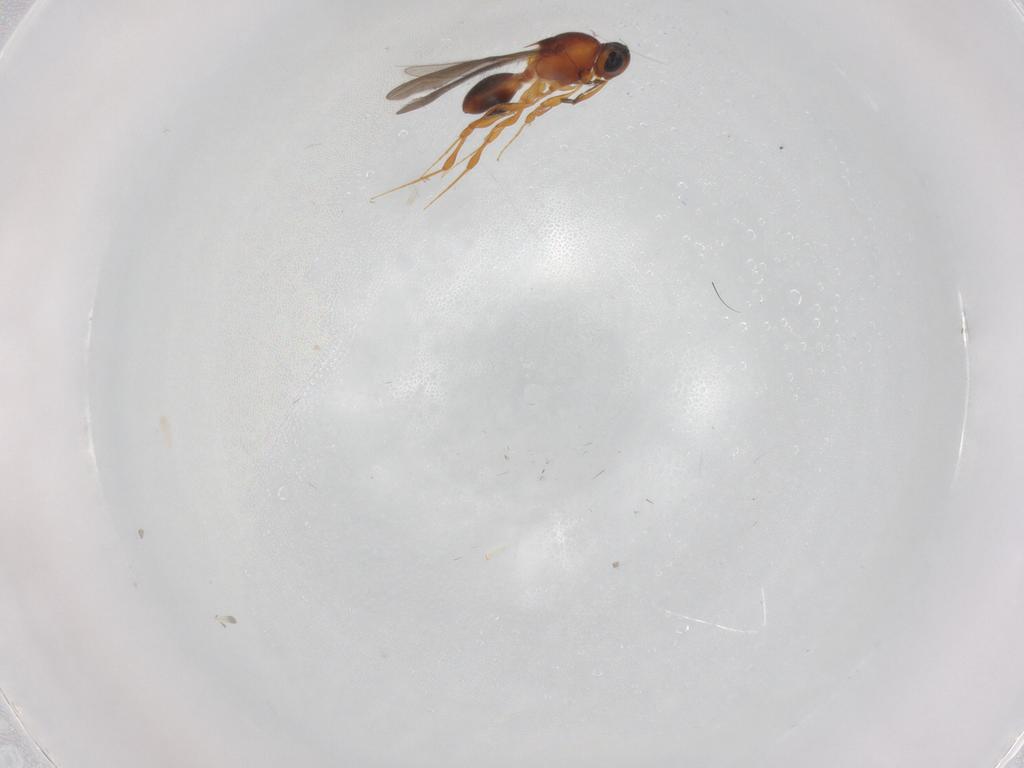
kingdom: Animalia
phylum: Arthropoda
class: Insecta
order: Hymenoptera
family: Platygastridae
